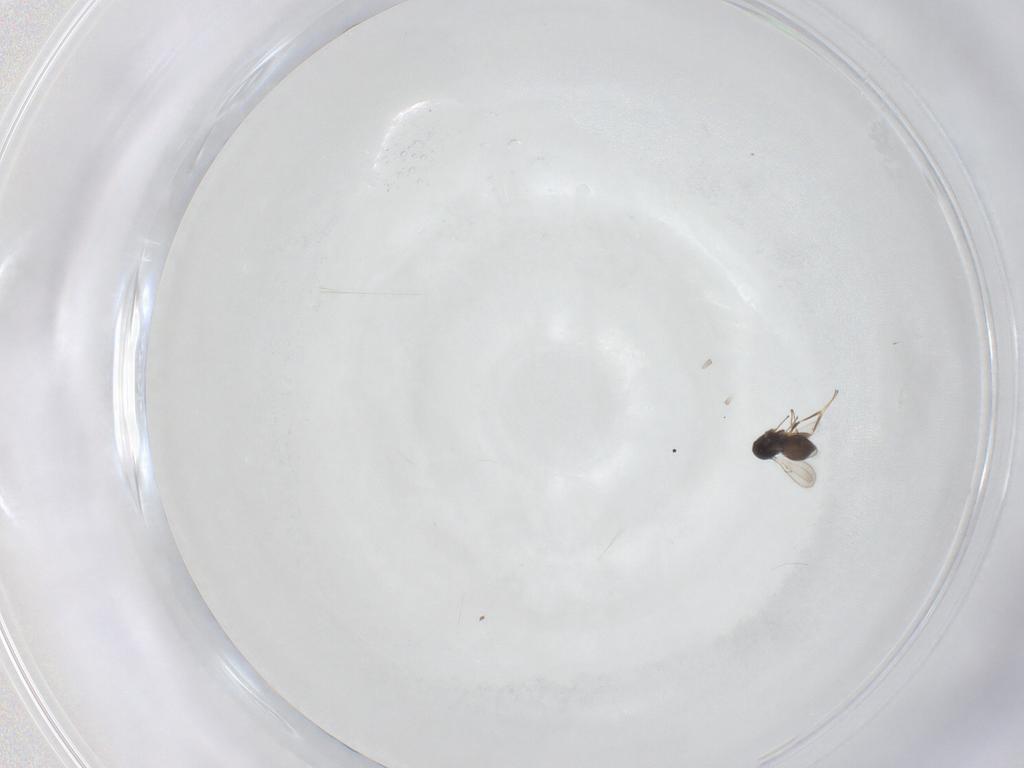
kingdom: Animalia
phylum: Arthropoda
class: Insecta
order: Hymenoptera
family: Scelionidae
